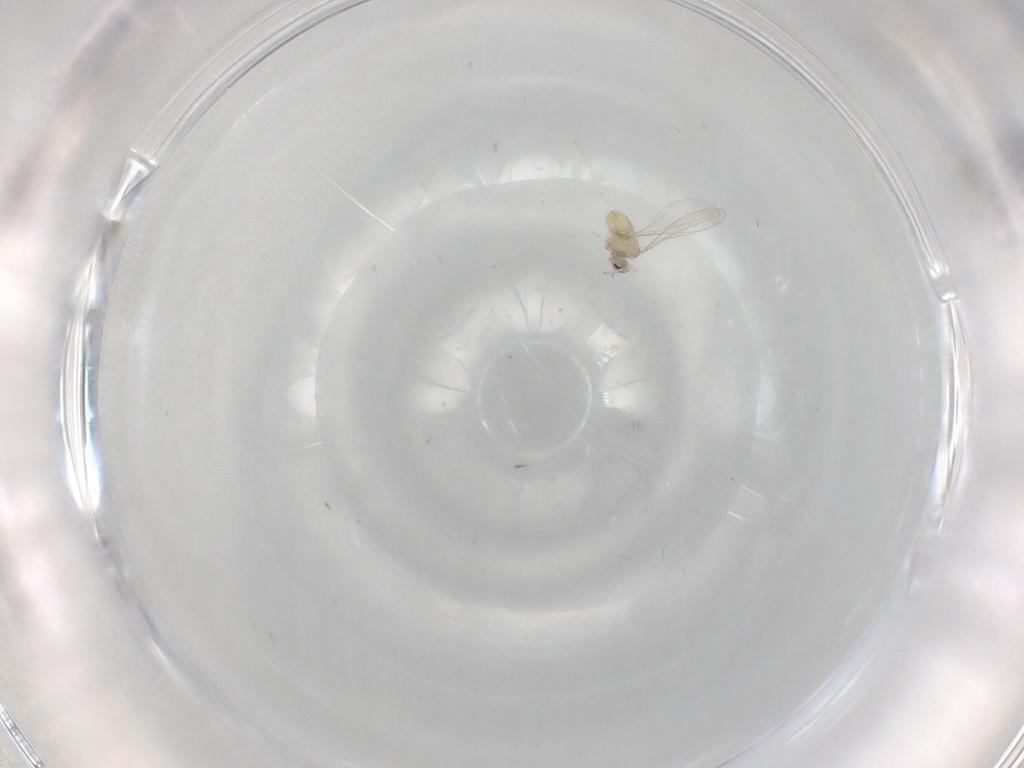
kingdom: Animalia
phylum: Arthropoda
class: Insecta
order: Diptera
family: Cecidomyiidae
